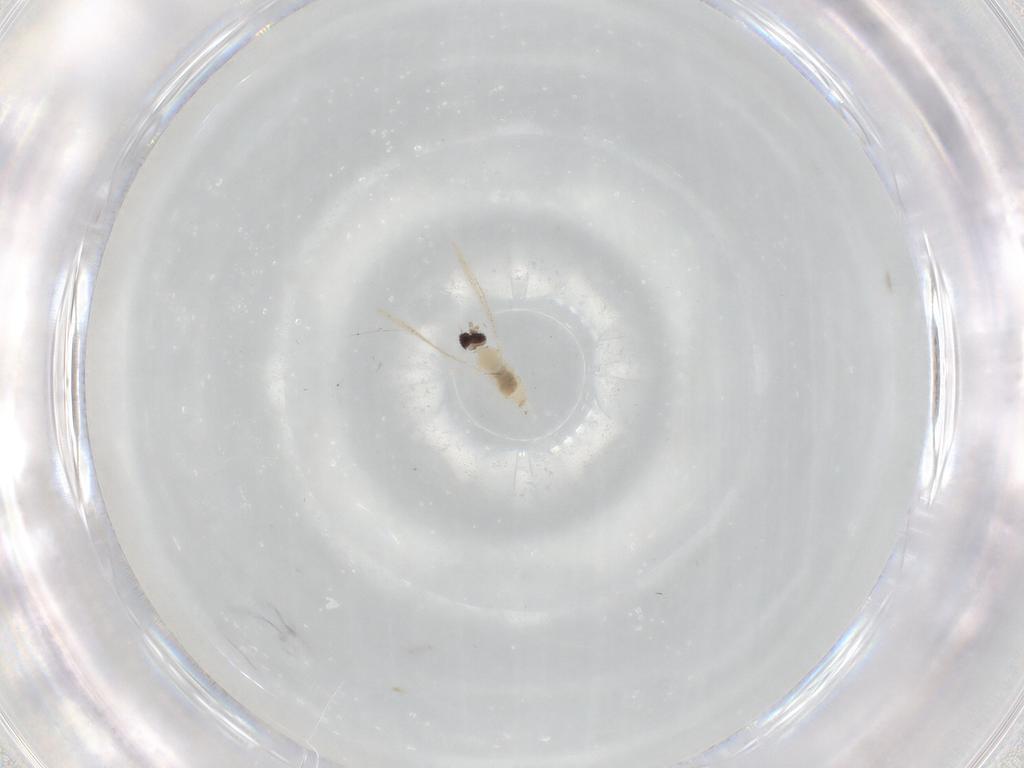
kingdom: Animalia
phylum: Arthropoda
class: Insecta
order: Diptera
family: Cecidomyiidae
